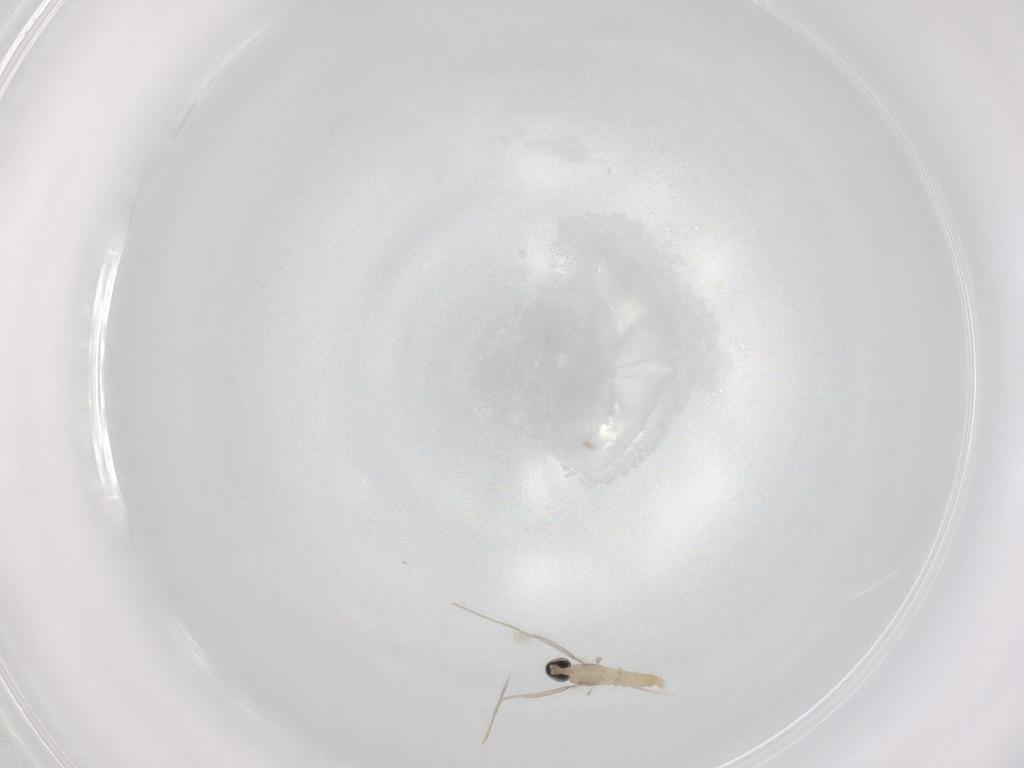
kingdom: Animalia
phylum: Arthropoda
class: Insecta
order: Diptera
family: Cecidomyiidae
